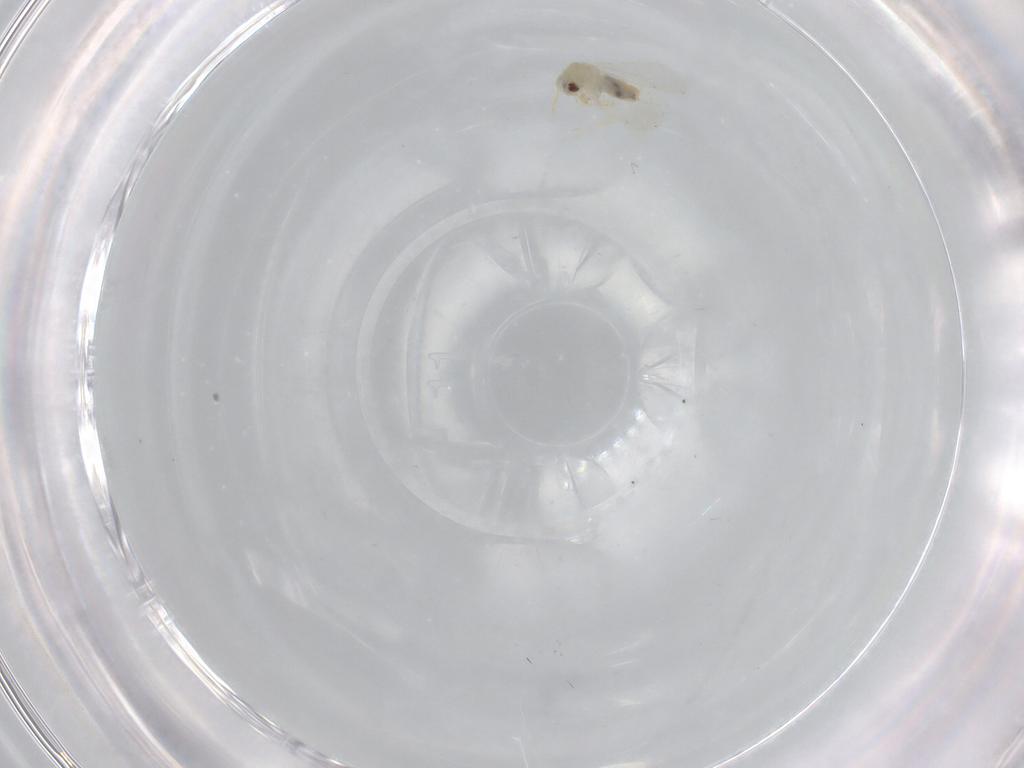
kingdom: Animalia
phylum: Arthropoda
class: Insecta
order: Hemiptera
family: Aleyrodidae
